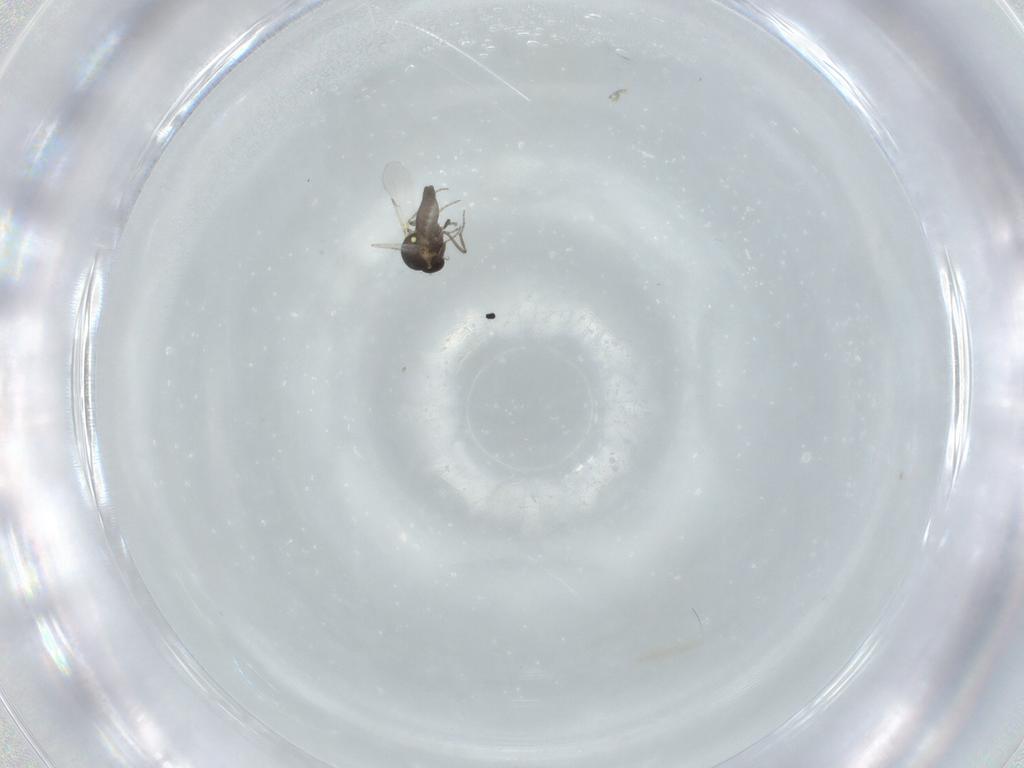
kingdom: Animalia
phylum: Arthropoda
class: Insecta
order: Diptera
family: Ceratopogonidae
